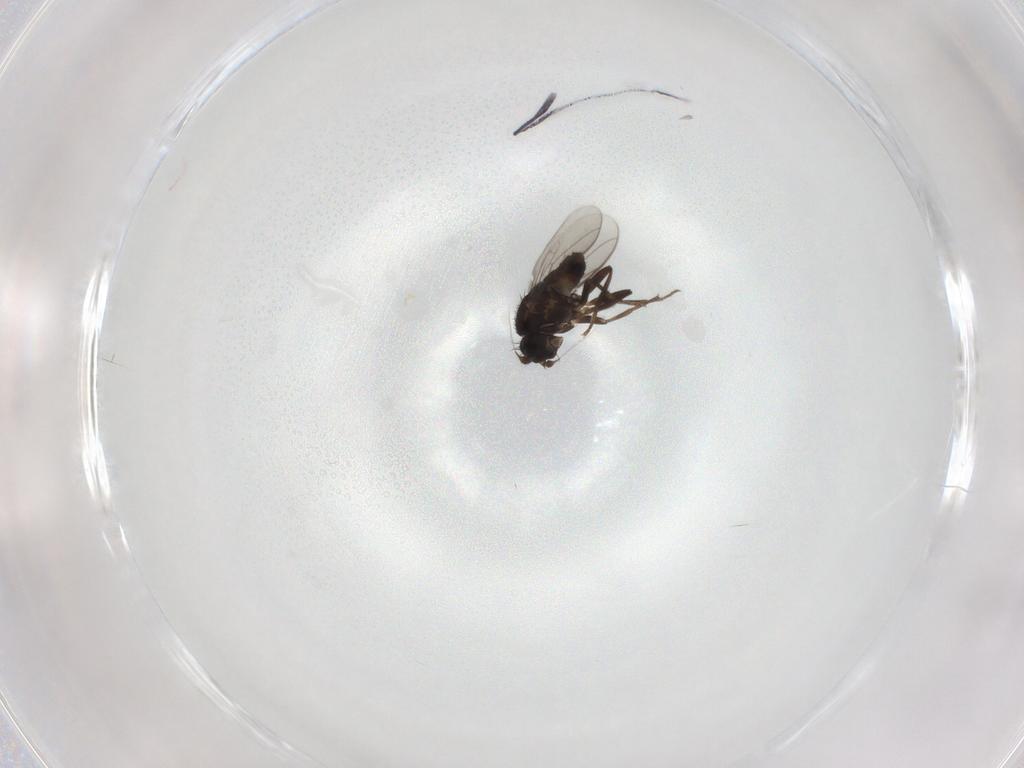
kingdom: Animalia
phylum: Arthropoda
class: Insecta
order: Diptera
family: Sphaeroceridae
